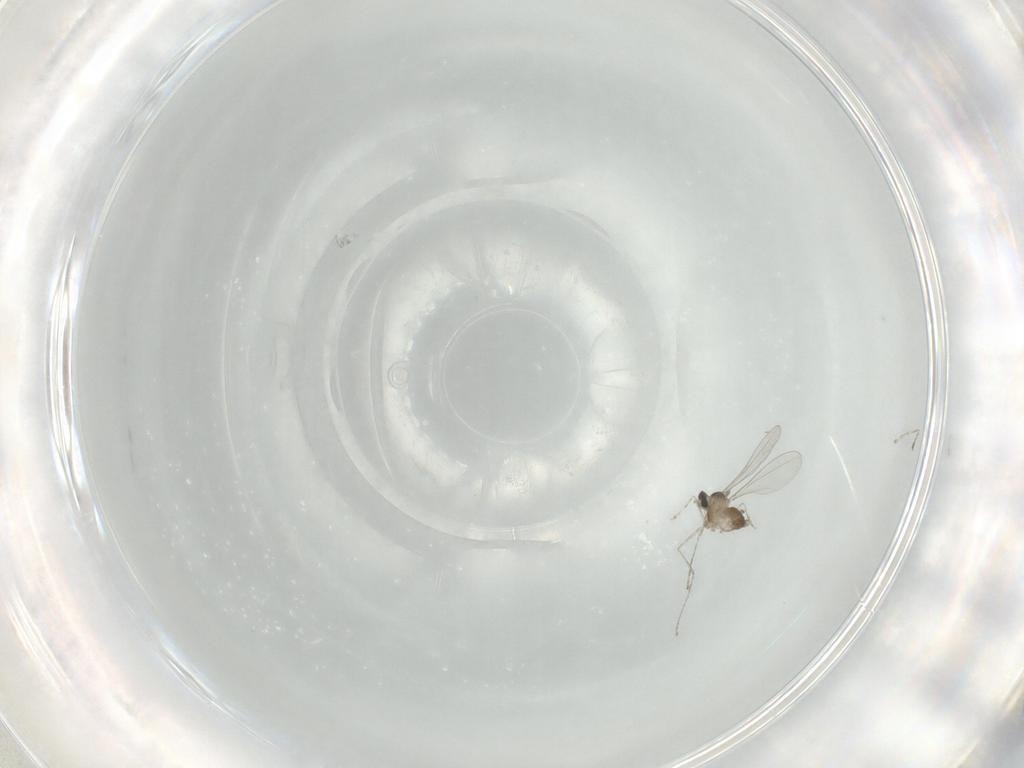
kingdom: Animalia
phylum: Arthropoda
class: Insecta
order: Diptera
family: Cecidomyiidae
